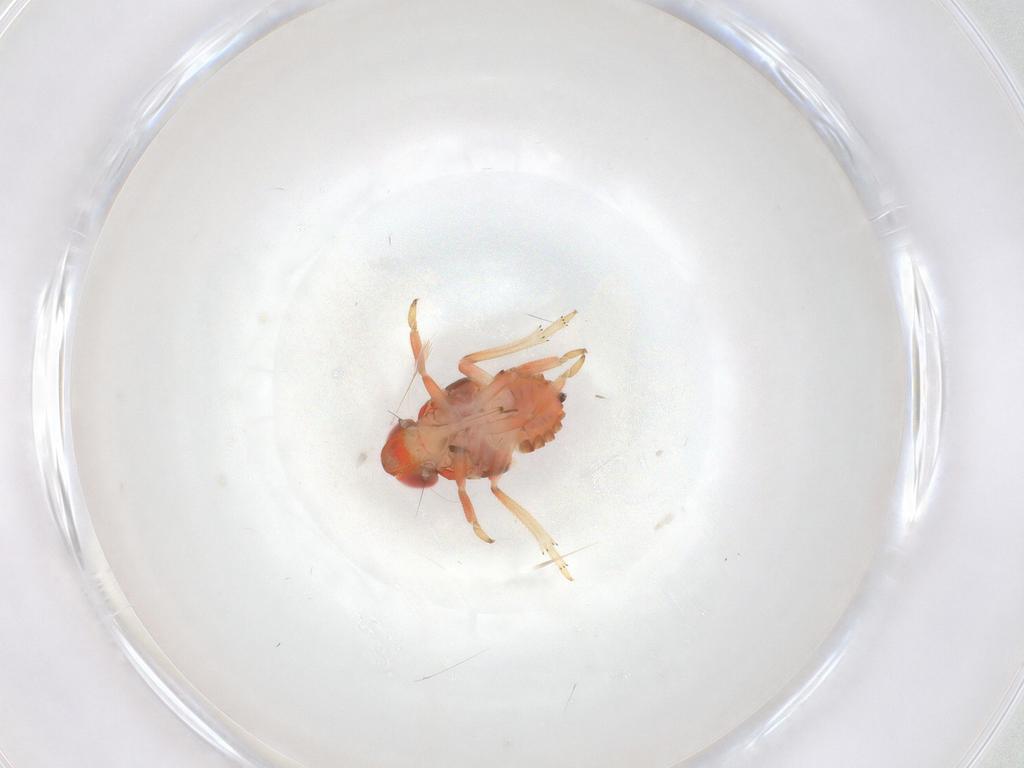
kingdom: Animalia
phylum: Arthropoda
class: Insecta
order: Hemiptera
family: Issidae
